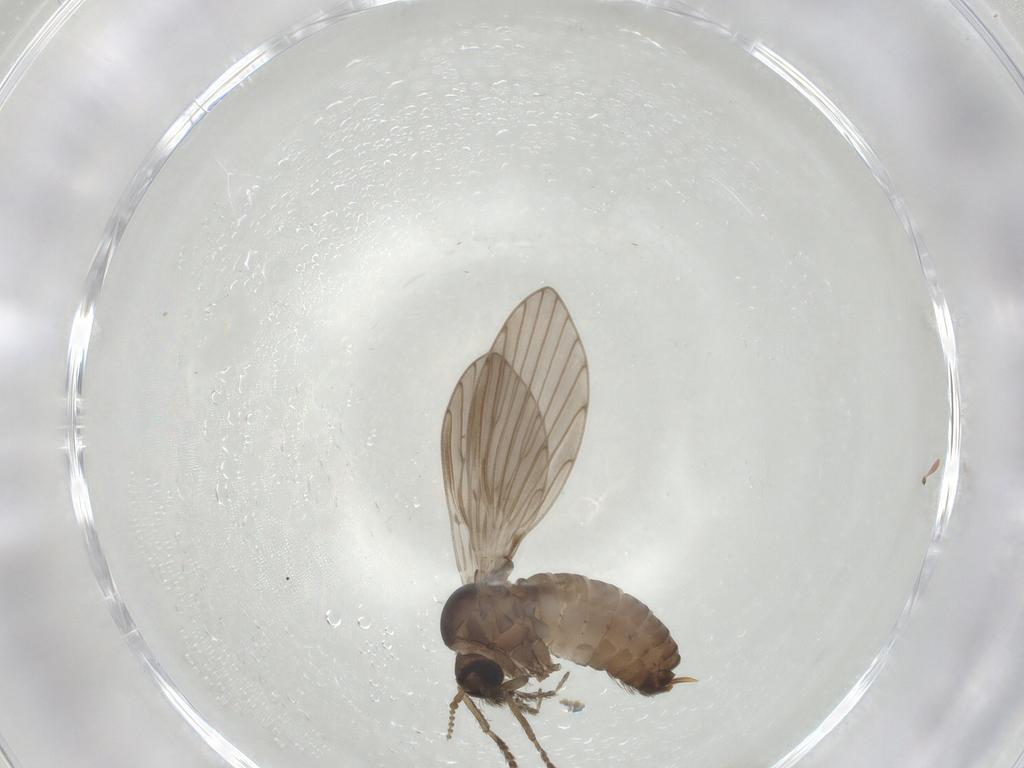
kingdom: Animalia
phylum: Arthropoda
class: Insecta
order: Diptera
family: Psychodidae
